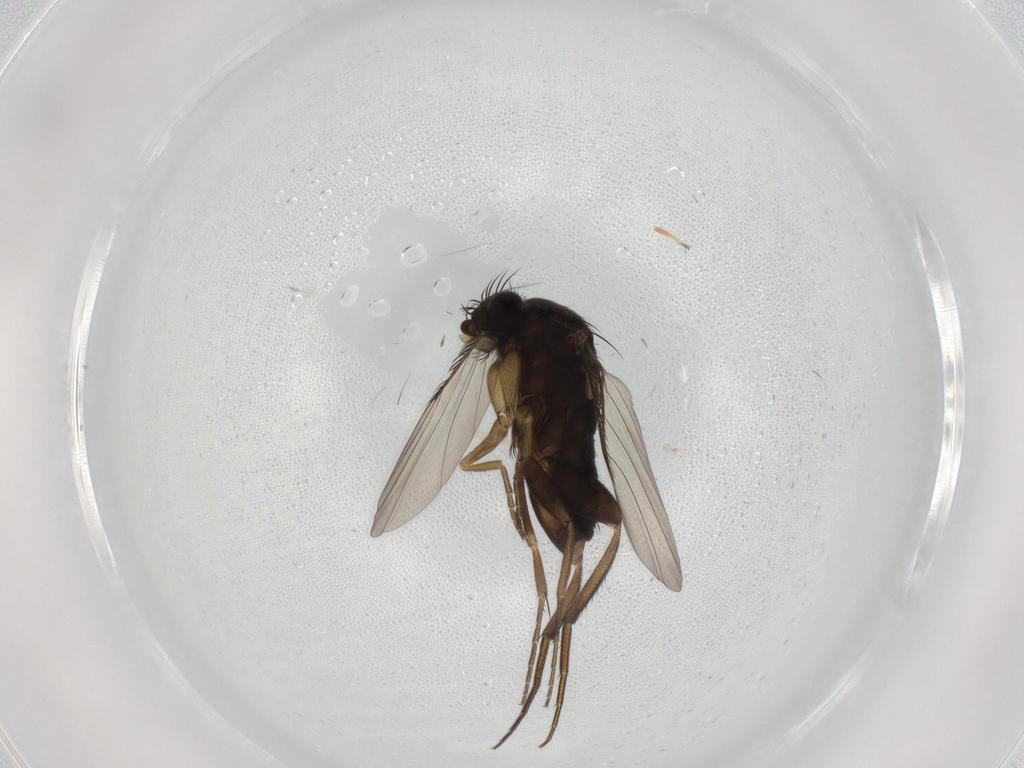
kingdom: Animalia
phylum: Arthropoda
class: Insecta
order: Diptera
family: Phoridae
